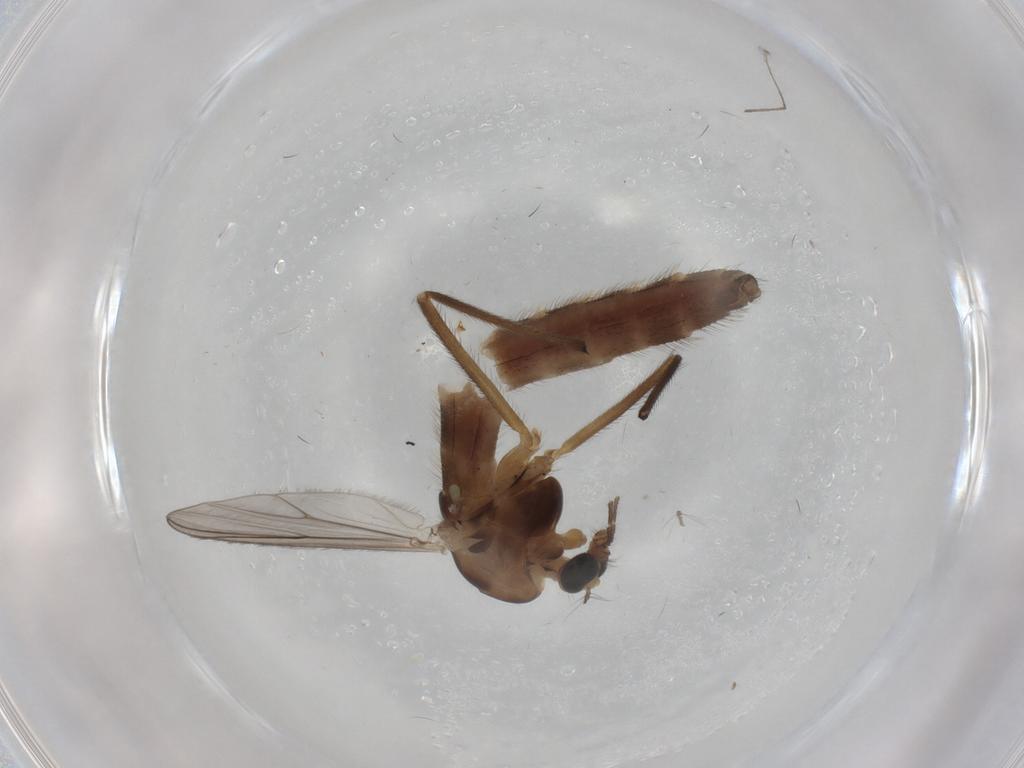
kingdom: Animalia
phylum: Arthropoda
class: Insecta
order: Diptera
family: Chironomidae
